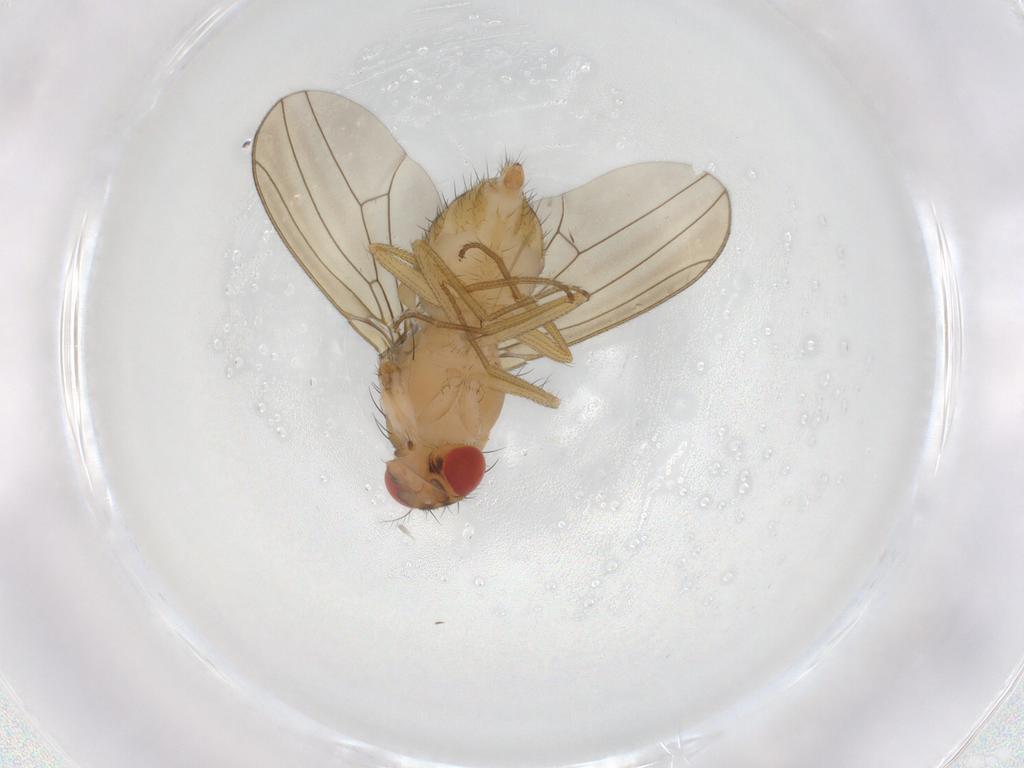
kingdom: Animalia
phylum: Arthropoda
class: Insecta
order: Diptera
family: Drosophilidae
